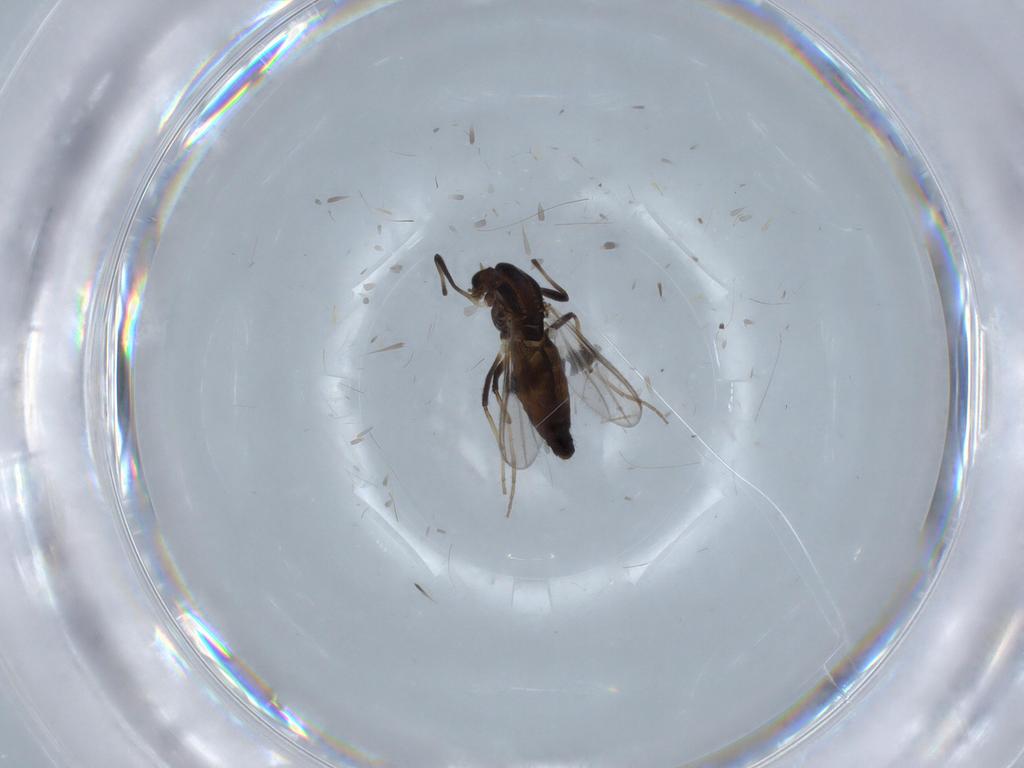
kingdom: Animalia
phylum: Arthropoda
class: Insecta
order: Diptera
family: Chironomidae
